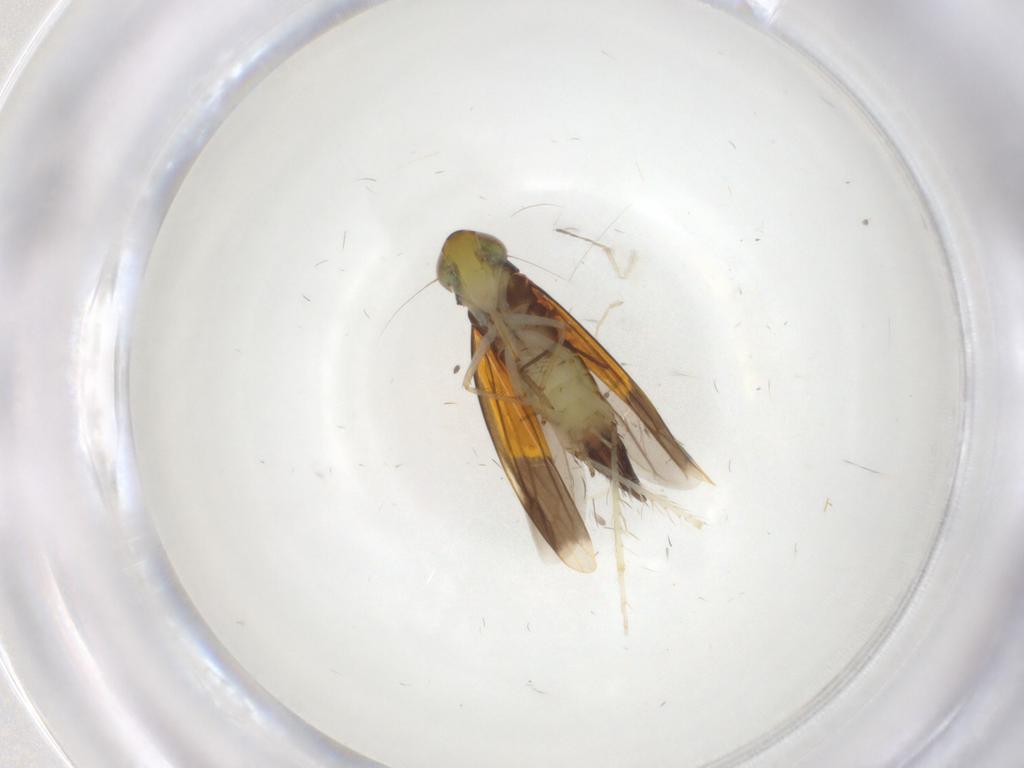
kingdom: Animalia
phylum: Arthropoda
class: Insecta
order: Hemiptera
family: Cicadellidae
